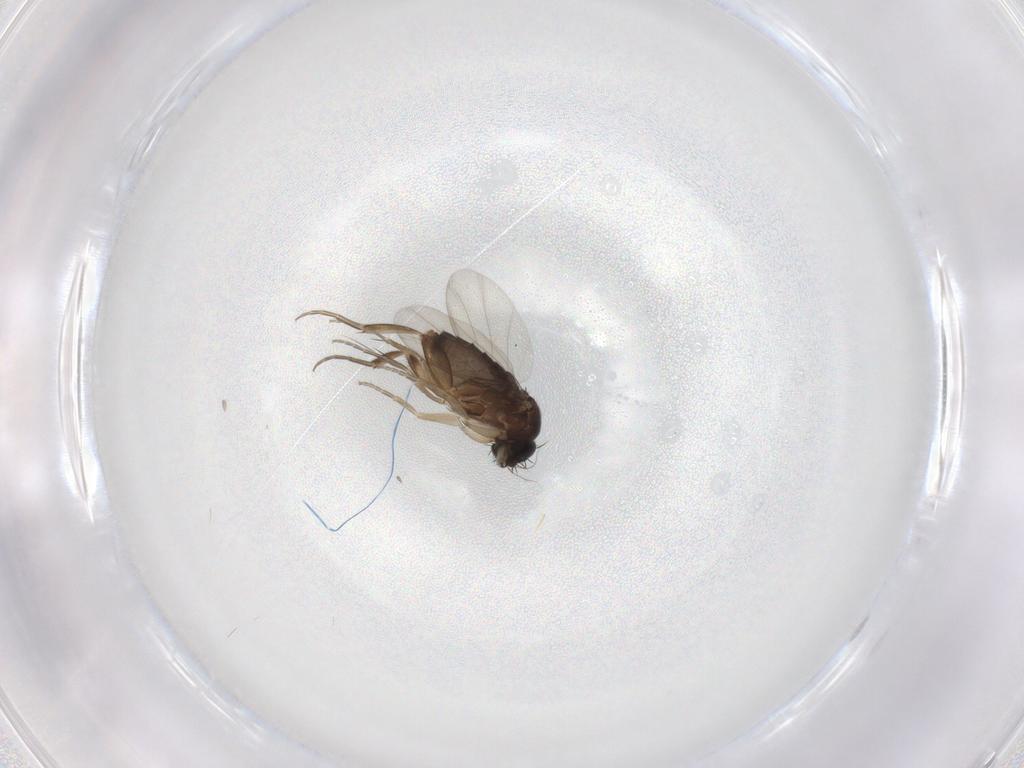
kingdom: Animalia
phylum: Arthropoda
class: Insecta
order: Diptera
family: Phoridae
